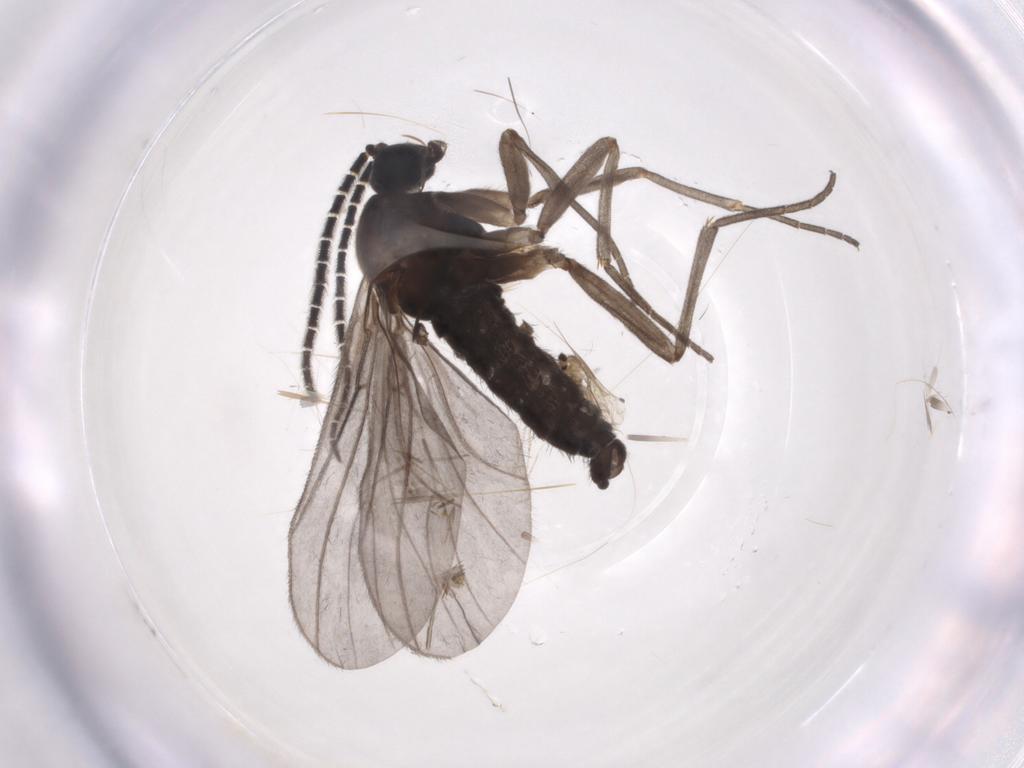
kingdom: Animalia
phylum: Arthropoda
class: Insecta
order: Diptera
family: Sciaridae
